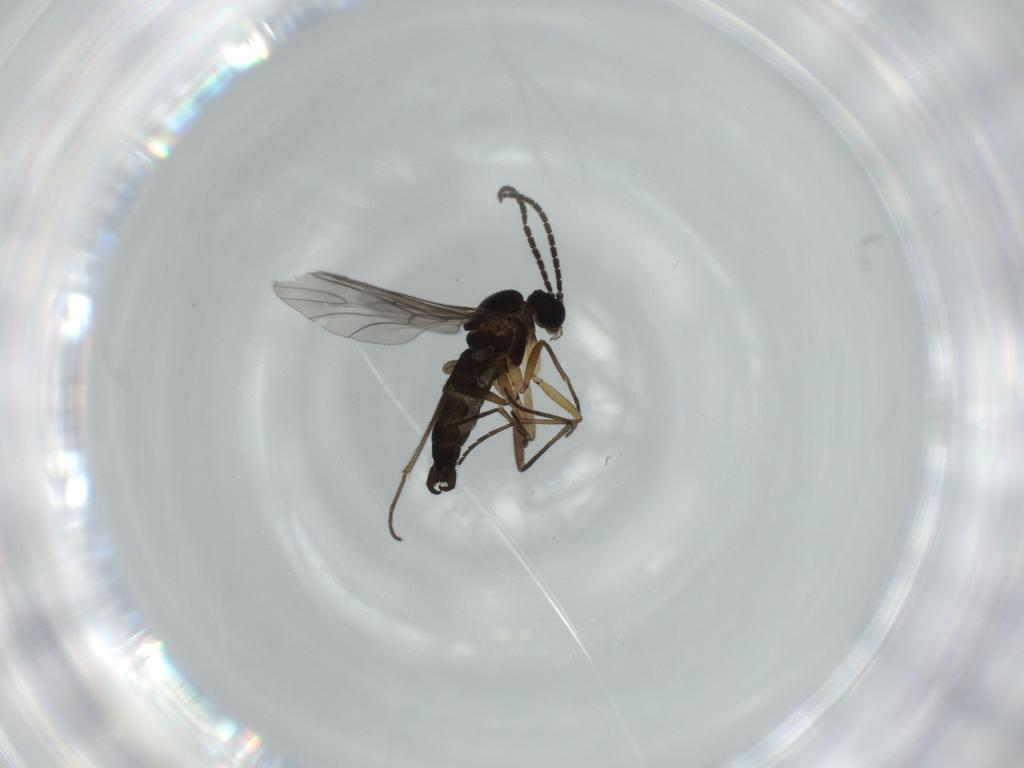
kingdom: Animalia
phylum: Arthropoda
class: Insecta
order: Diptera
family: Sciaridae
